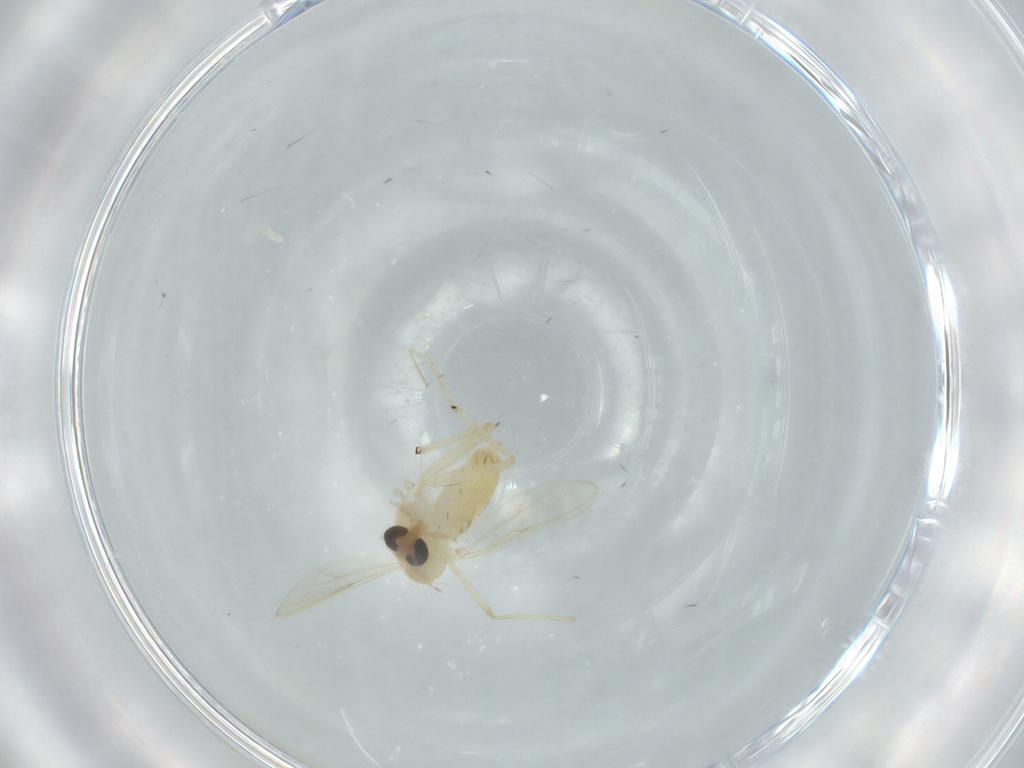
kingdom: Animalia
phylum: Arthropoda
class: Insecta
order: Diptera
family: Chironomidae
